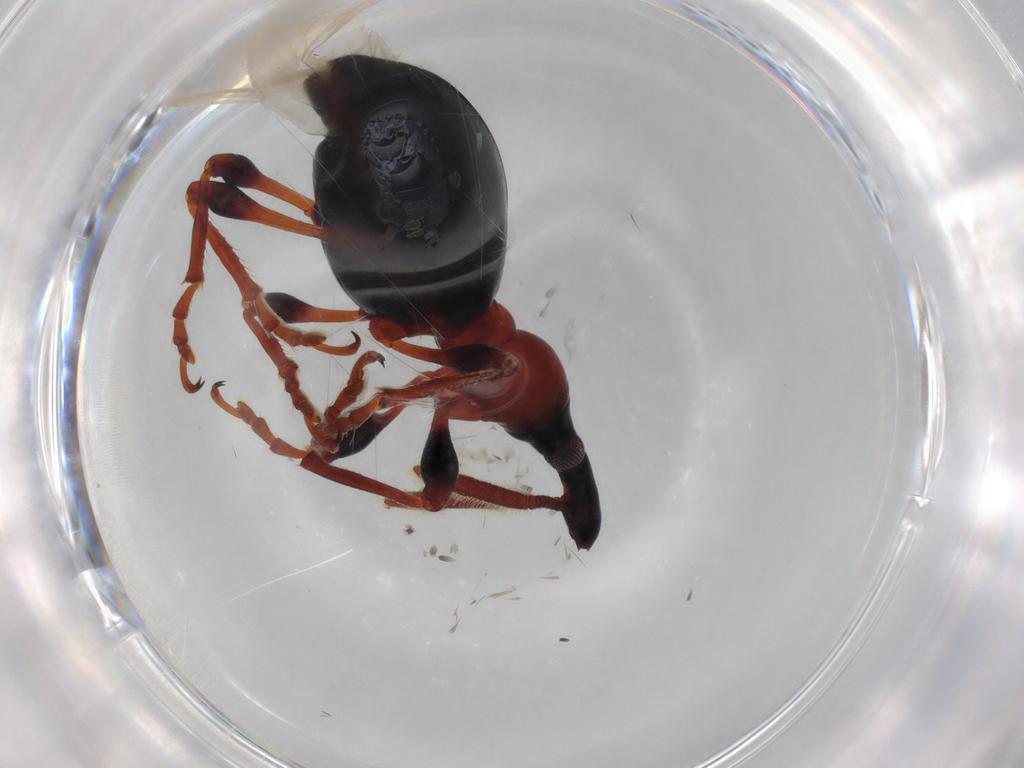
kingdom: Animalia
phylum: Arthropoda
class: Insecta
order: Coleoptera
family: Brentidae
